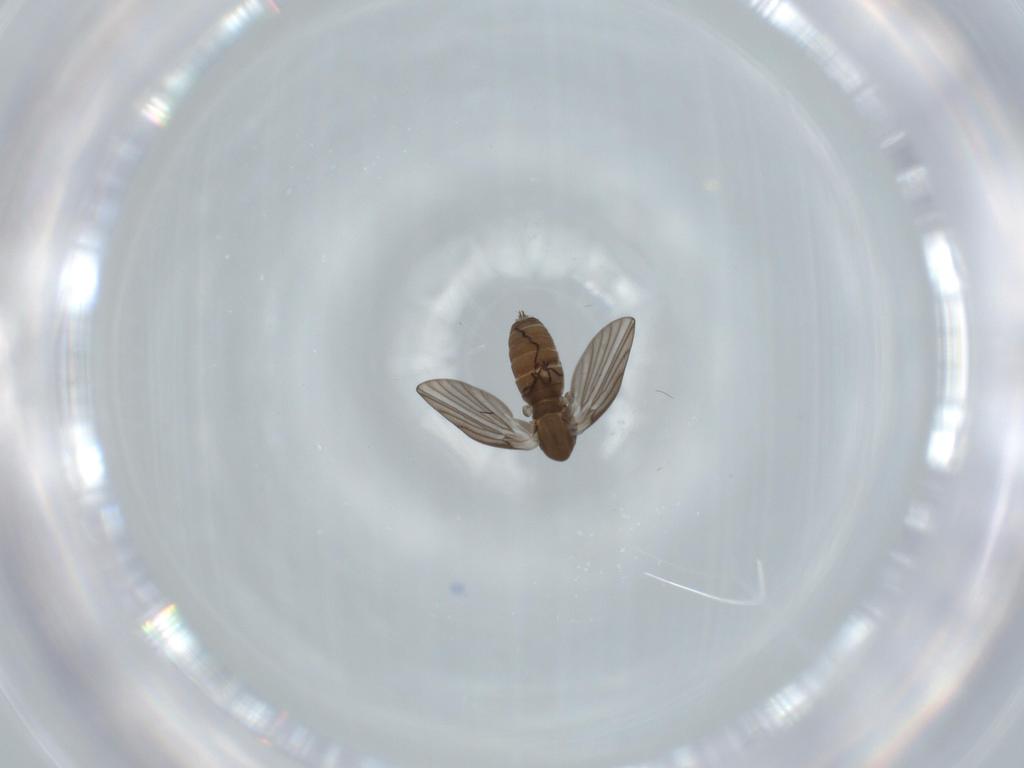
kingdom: Animalia
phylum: Arthropoda
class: Insecta
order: Diptera
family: Psychodidae
